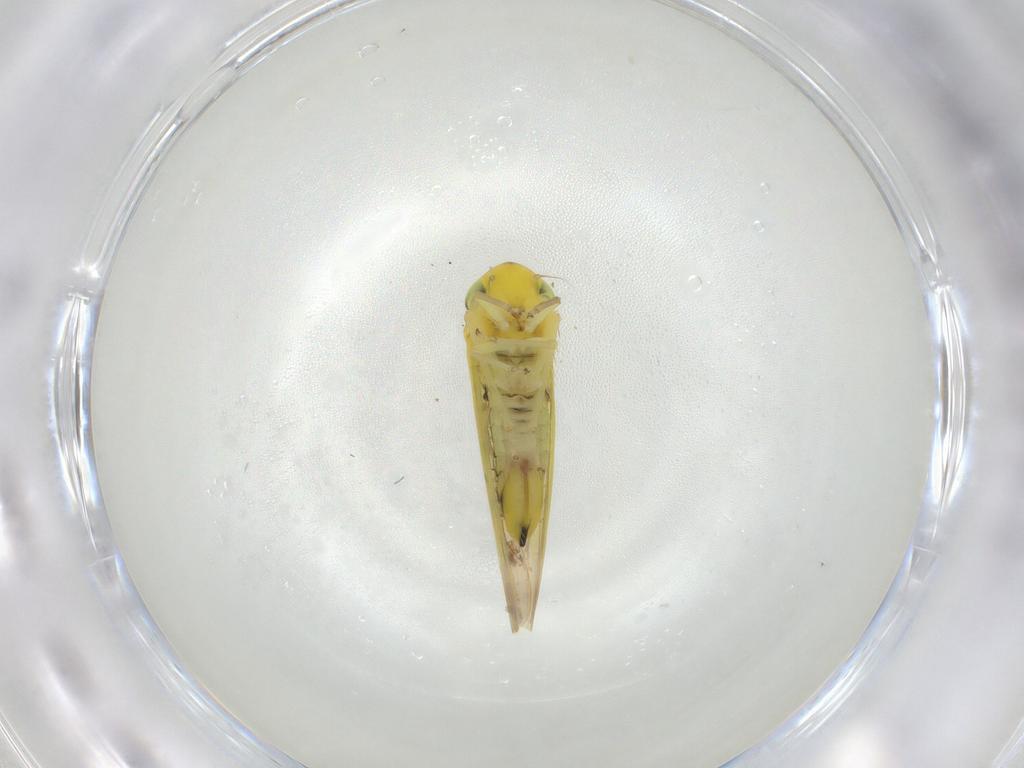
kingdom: Animalia
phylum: Arthropoda
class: Insecta
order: Hemiptera
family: Cicadellidae
